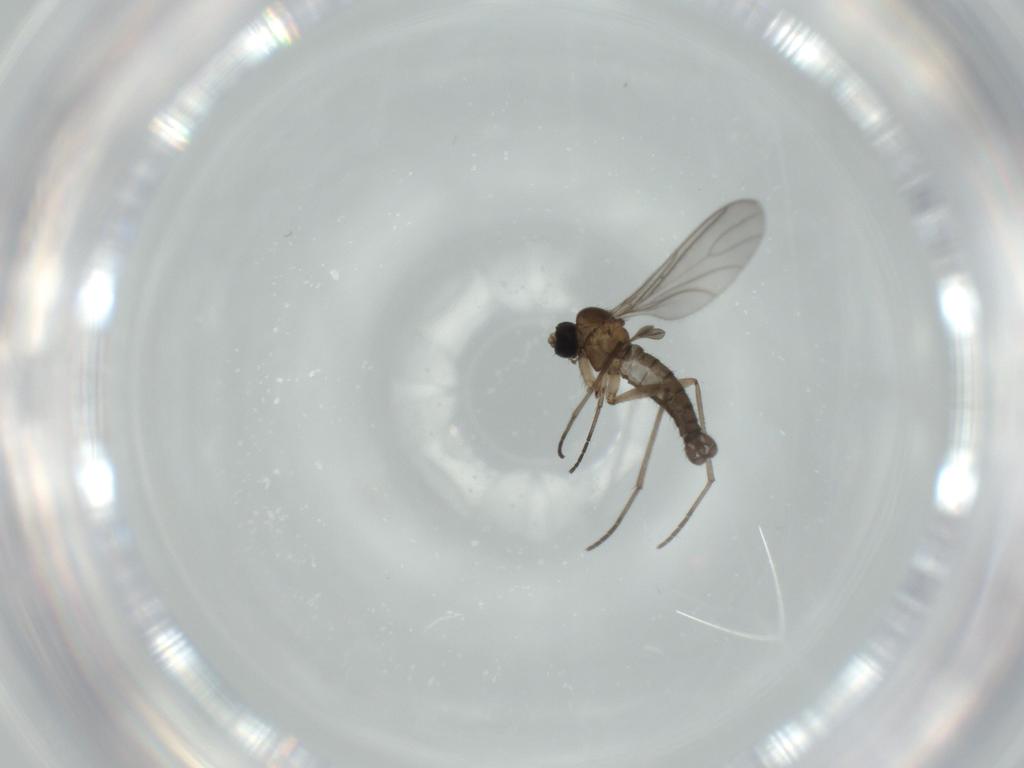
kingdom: Animalia
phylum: Arthropoda
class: Insecta
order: Diptera
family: Sciaridae
